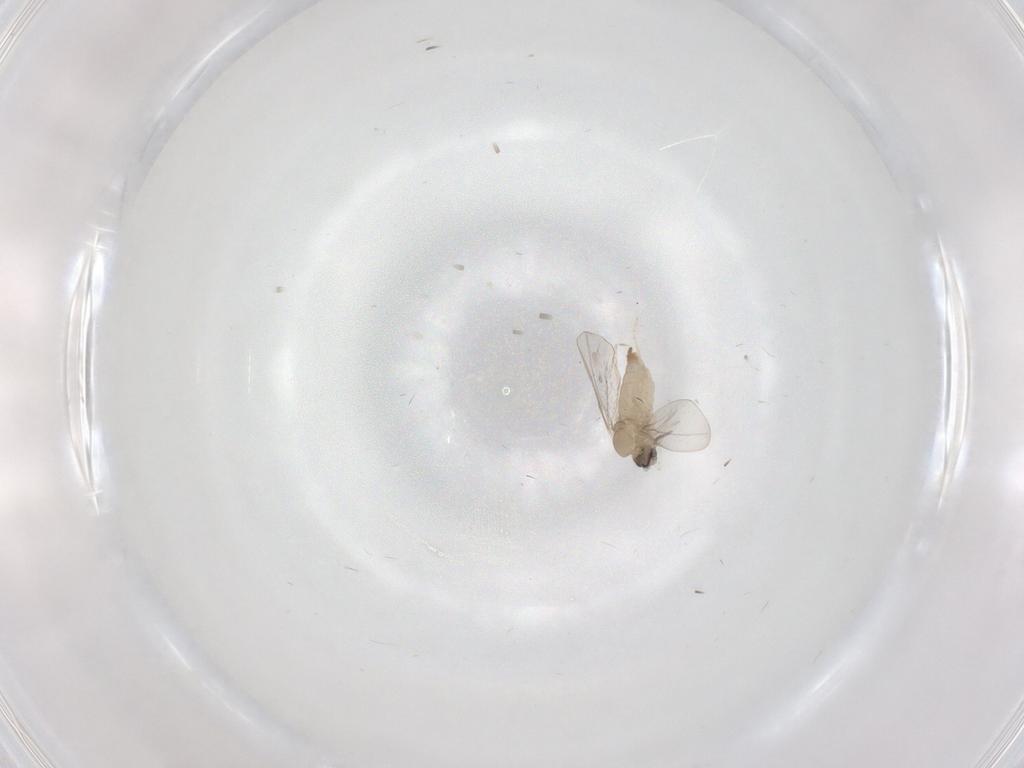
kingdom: Animalia
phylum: Arthropoda
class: Insecta
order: Diptera
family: Cecidomyiidae
